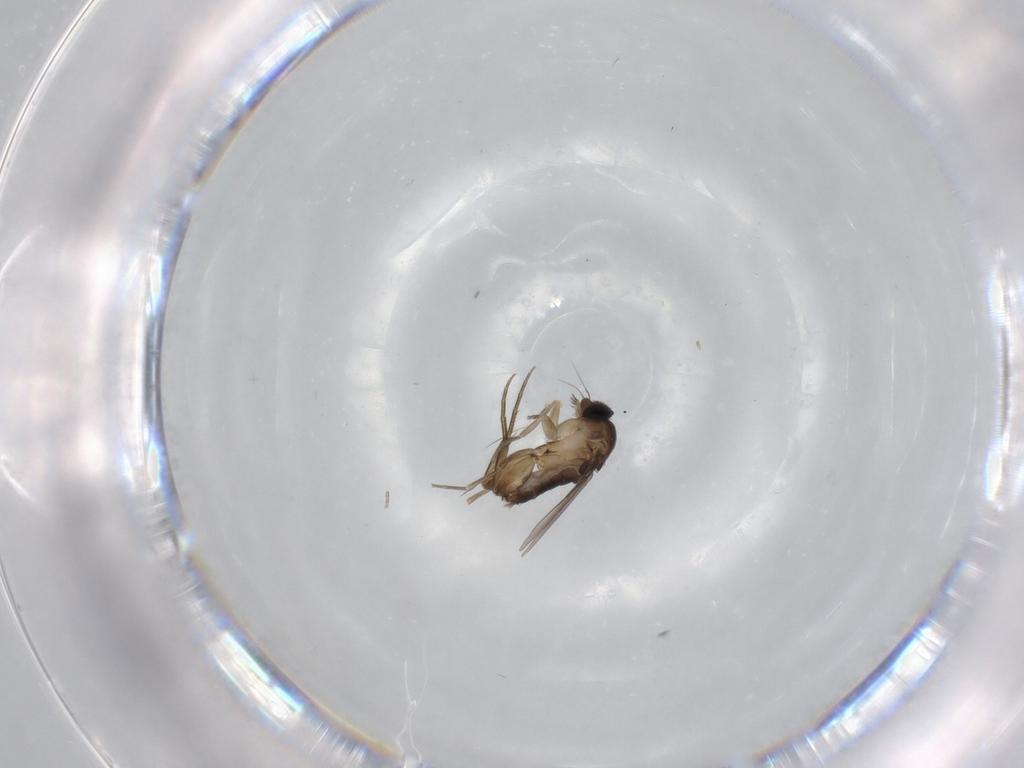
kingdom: Animalia
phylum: Arthropoda
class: Insecta
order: Diptera
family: Phoridae
